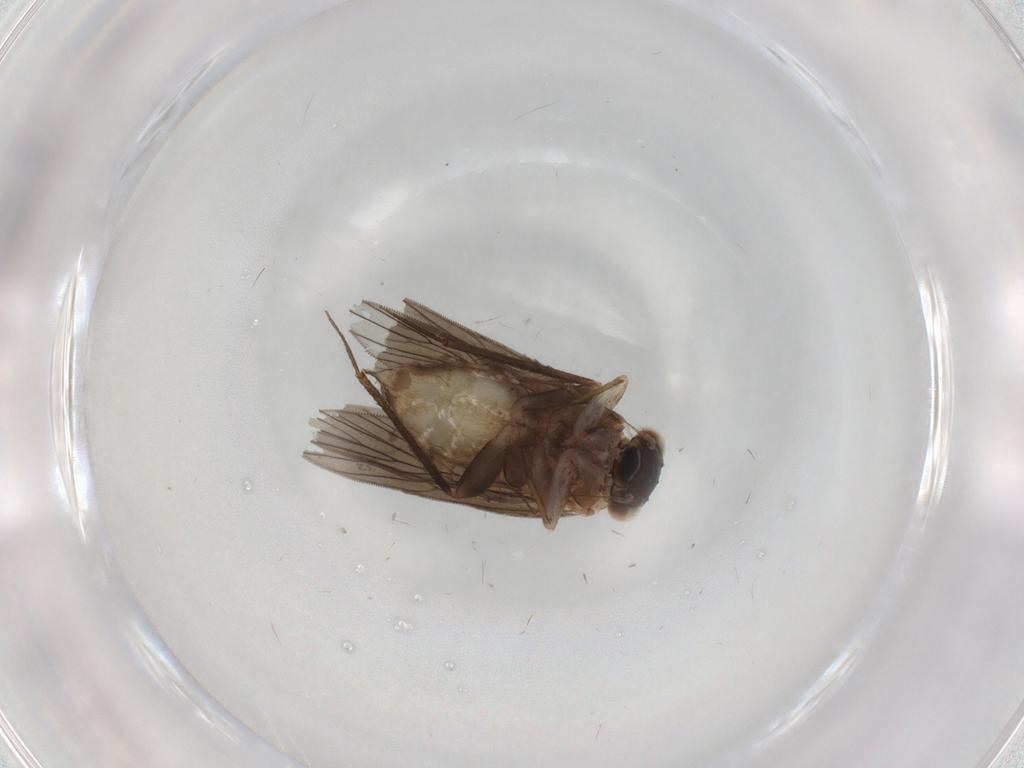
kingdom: Animalia
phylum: Arthropoda
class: Insecta
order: Psocodea
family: Lepidopsocidae
